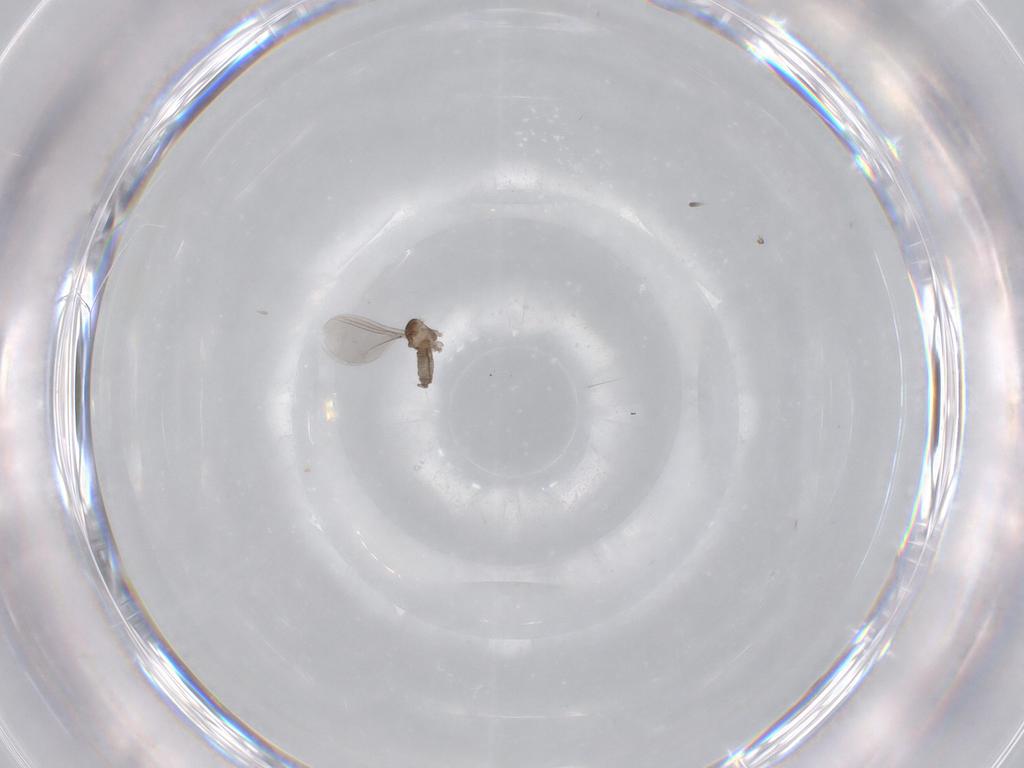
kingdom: Animalia
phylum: Arthropoda
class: Insecta
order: Diptera
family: Cecidomyiidae
